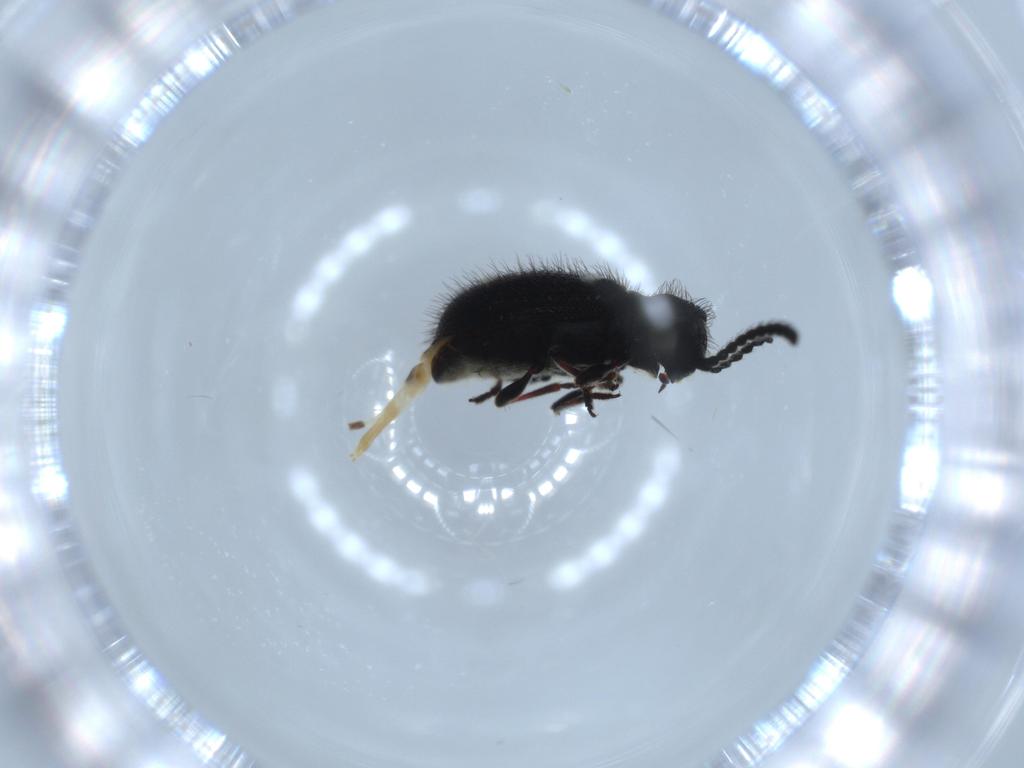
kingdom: Animalia
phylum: Arthropoda
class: Insecta
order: Coleoptera
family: Ptinidae
